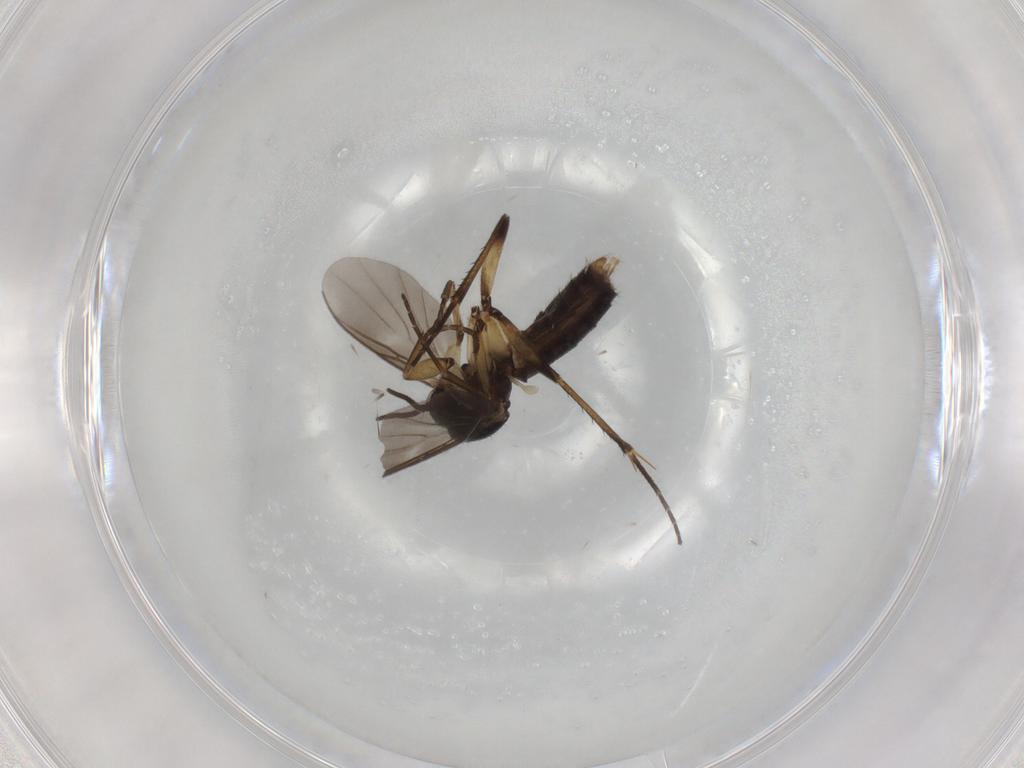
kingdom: Animalia
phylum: Arthropoda
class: Insecta
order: Diptera
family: Mycetophilidae
